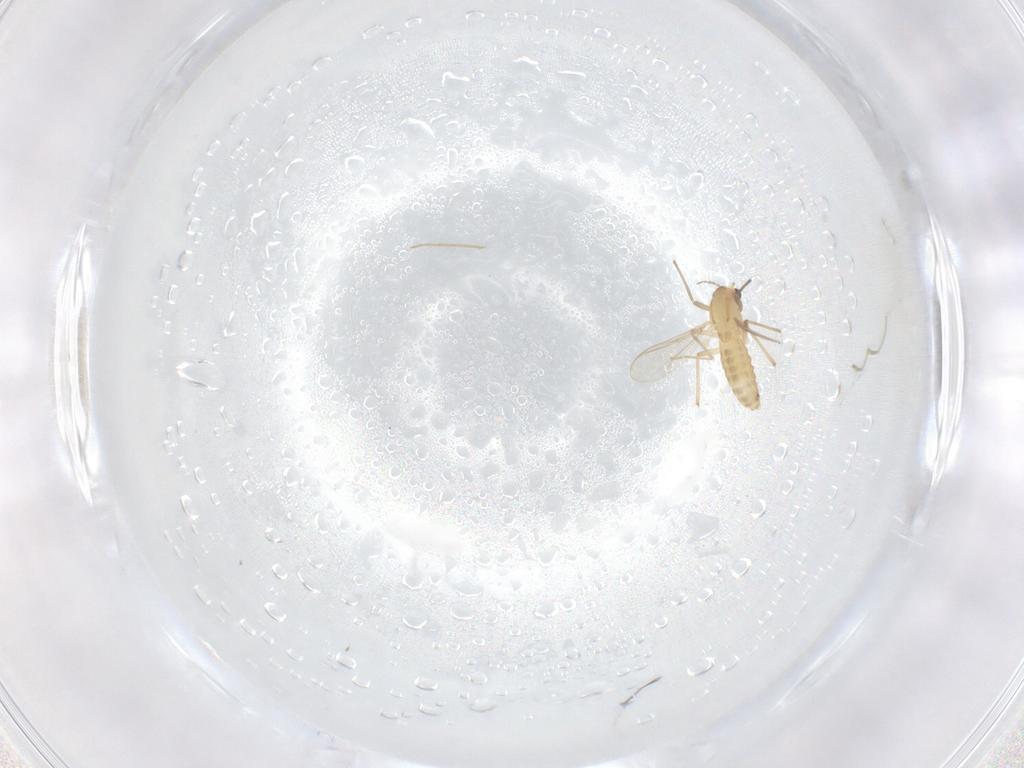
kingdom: Animalia
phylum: Arthropoda
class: Insecta
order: Diptera
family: Chironomidae
